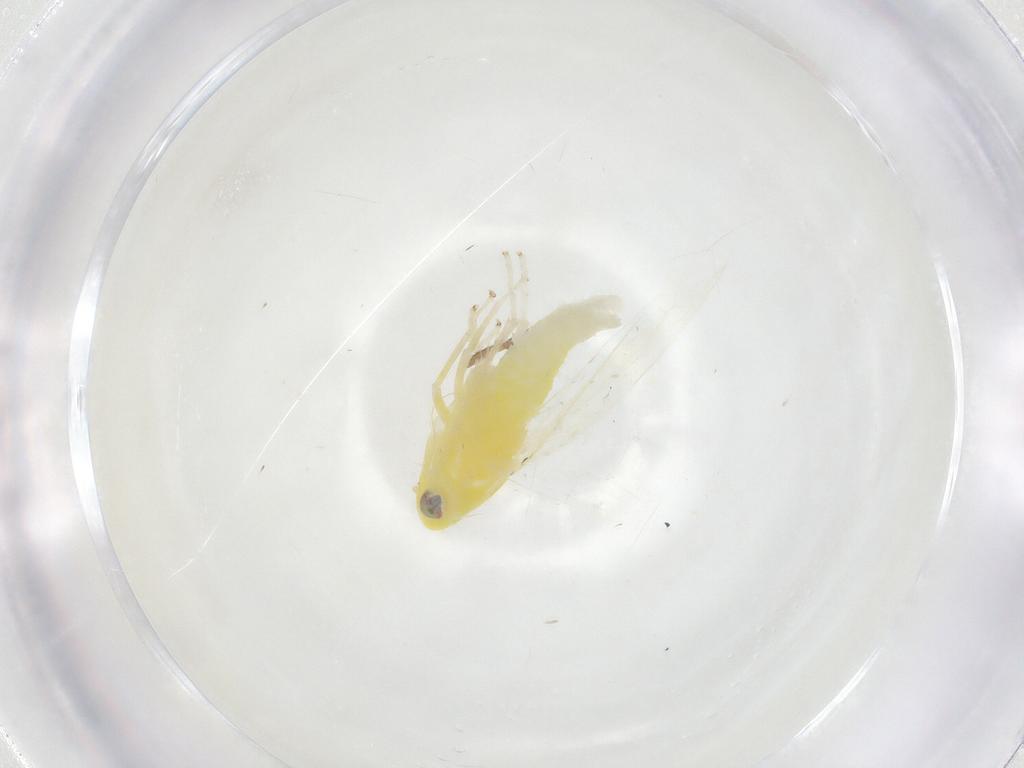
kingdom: Animalia
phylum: Arthropoda
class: Insecta
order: Hemiptera
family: Cicadellidae
